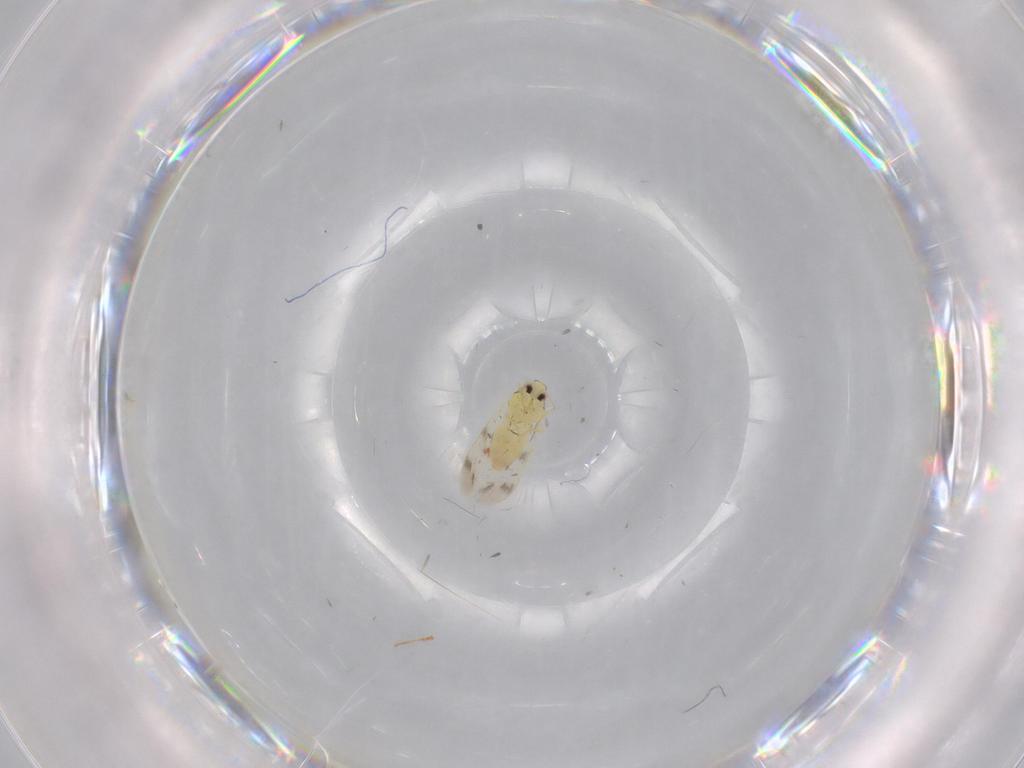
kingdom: Animalia
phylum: Arthropoda
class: Insecta
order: Hemiptera
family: Aleyrodidae
